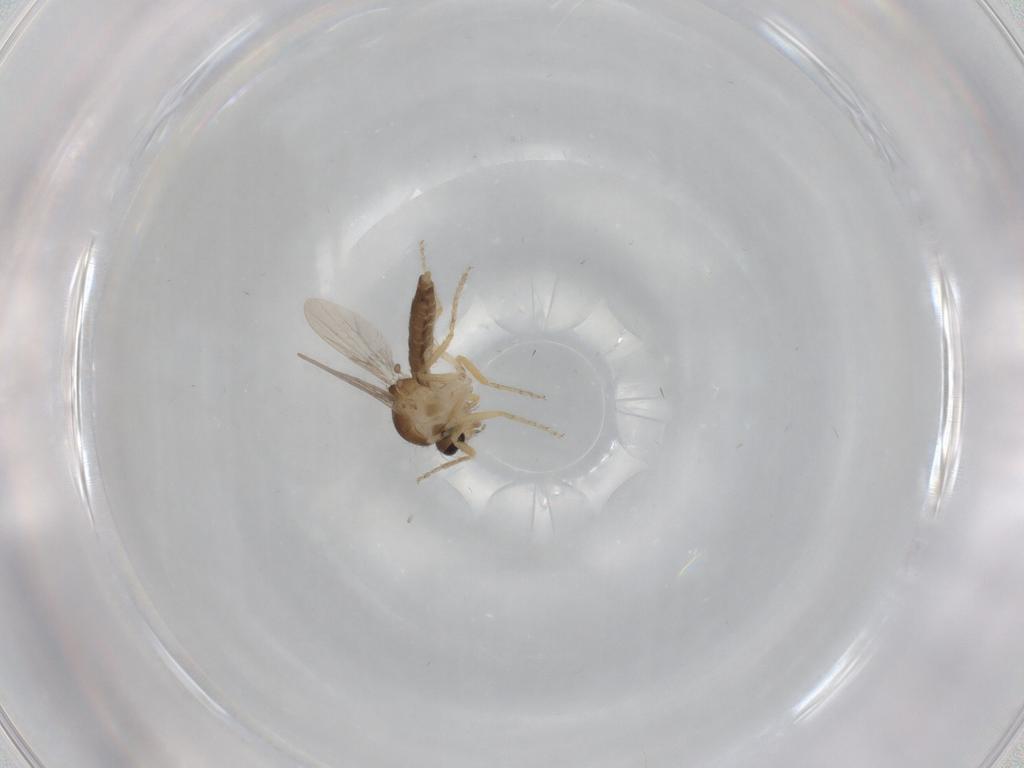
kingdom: Animalia
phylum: Arthropoda
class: Insecta
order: Diptera
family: Ceratopogonidae
